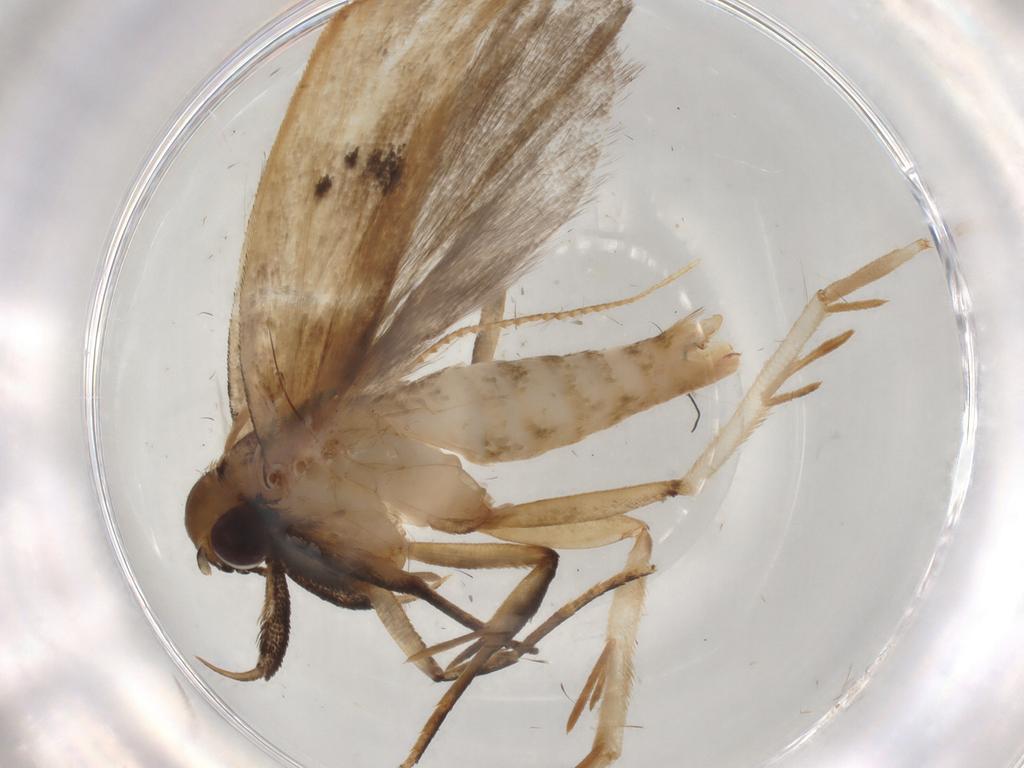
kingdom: Animalia
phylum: Arthropoda
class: Insecta
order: Lepidoptera
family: Gelechiidae
